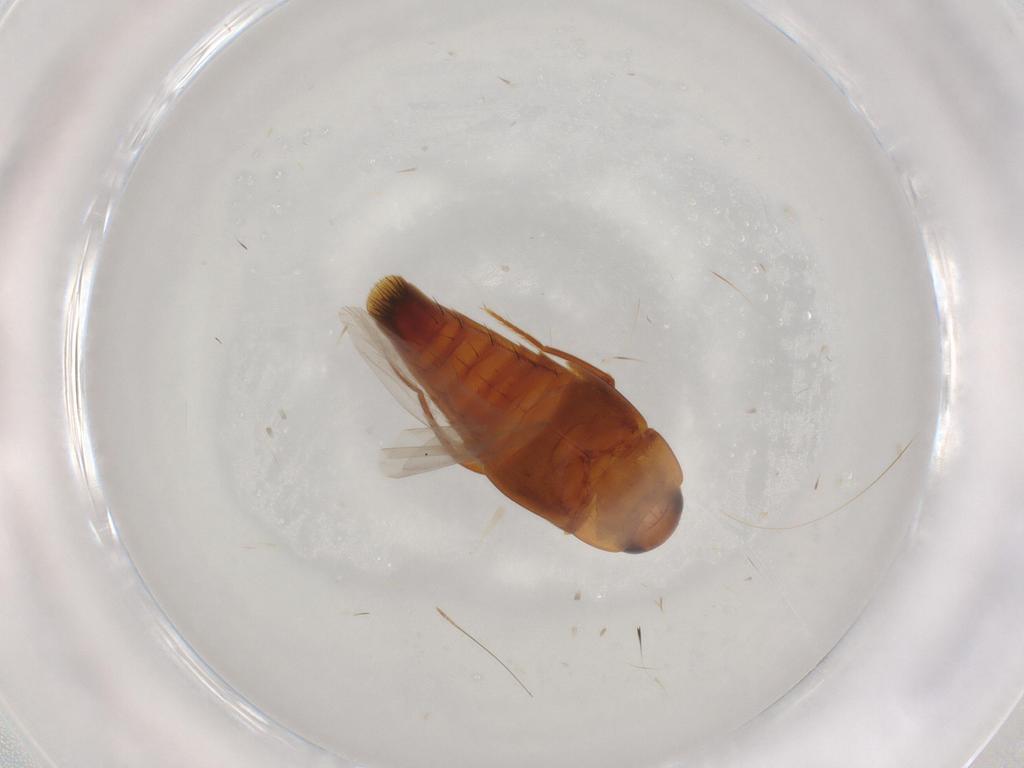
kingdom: Animalia
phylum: Arthropoda
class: Insecta
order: Coleoptera
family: Staphylinidae
